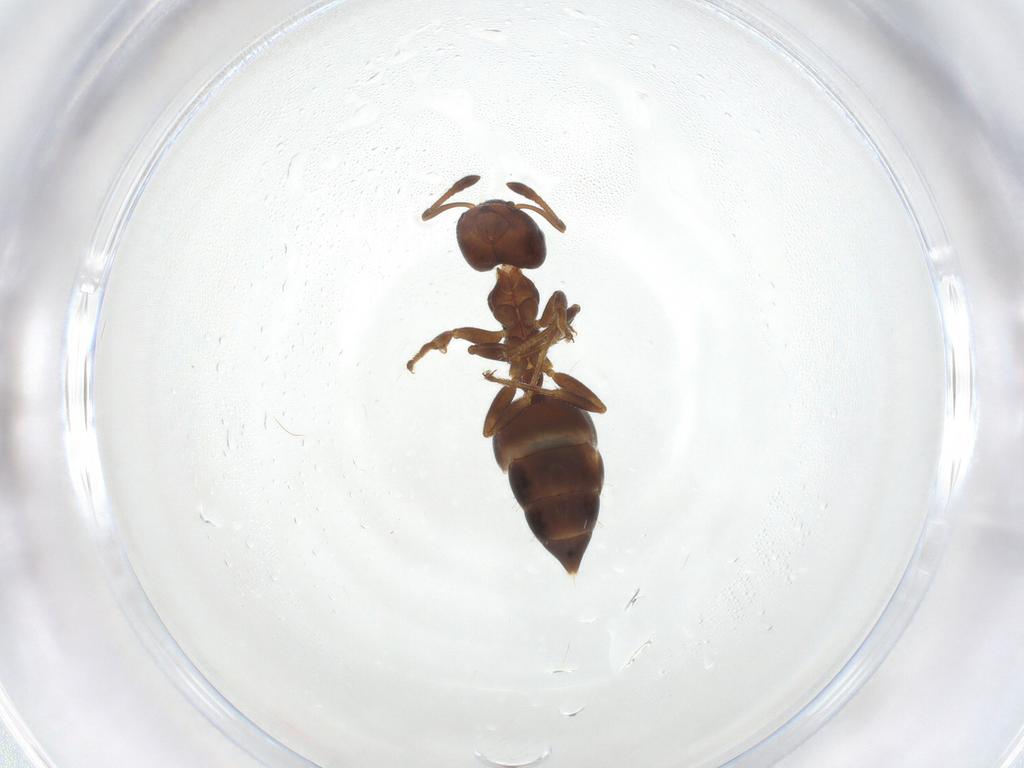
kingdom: Animalia
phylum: Arthropoda
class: Insecta
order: Hymenoptera
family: Formicidae
